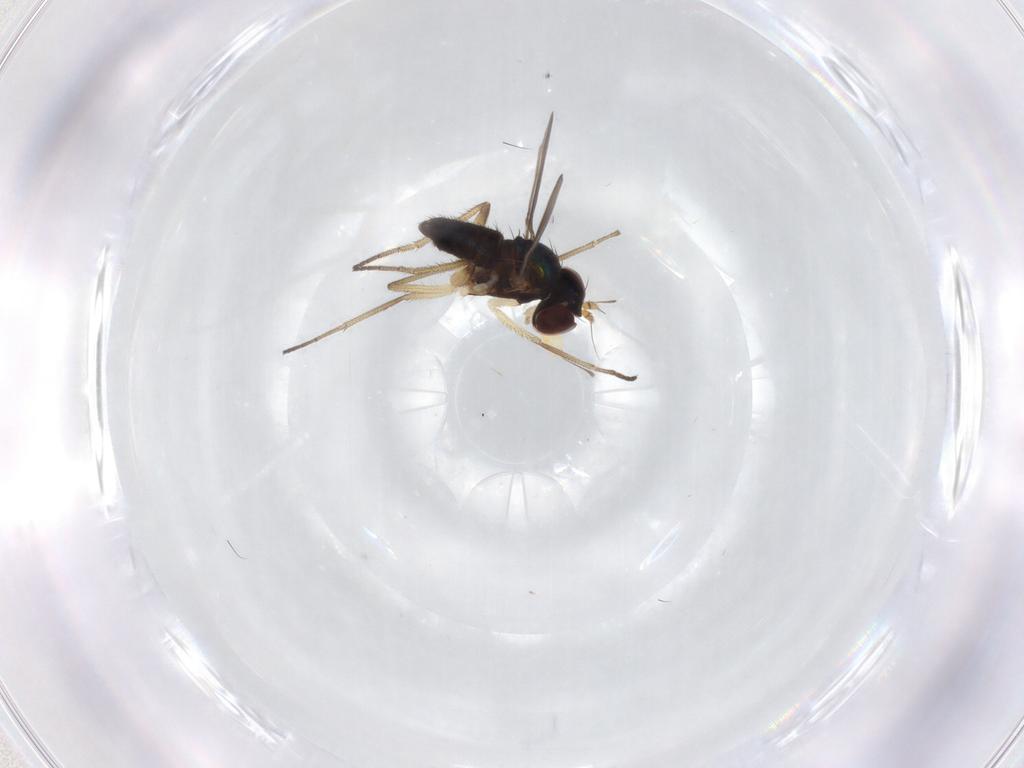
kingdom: Animalia
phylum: Arthropoda
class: Insecta
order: Diptera
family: Dolichopodidae
